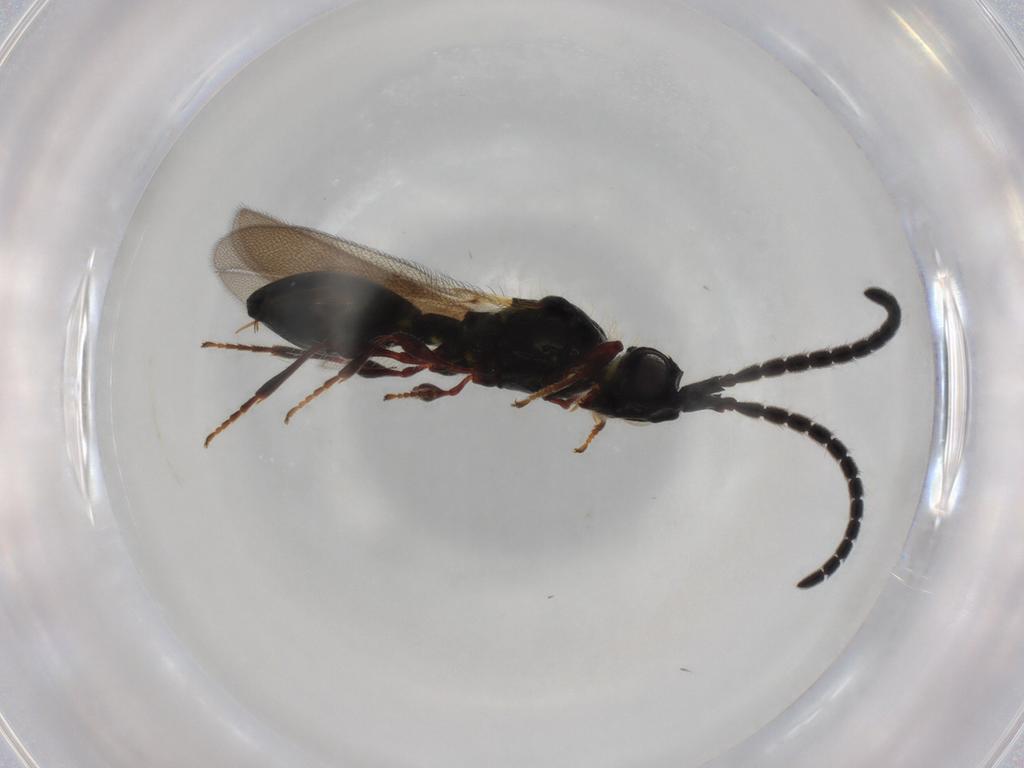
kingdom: Animalia
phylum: Arthropoda
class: Insecta
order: Hymenoptera
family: Diapriidae
